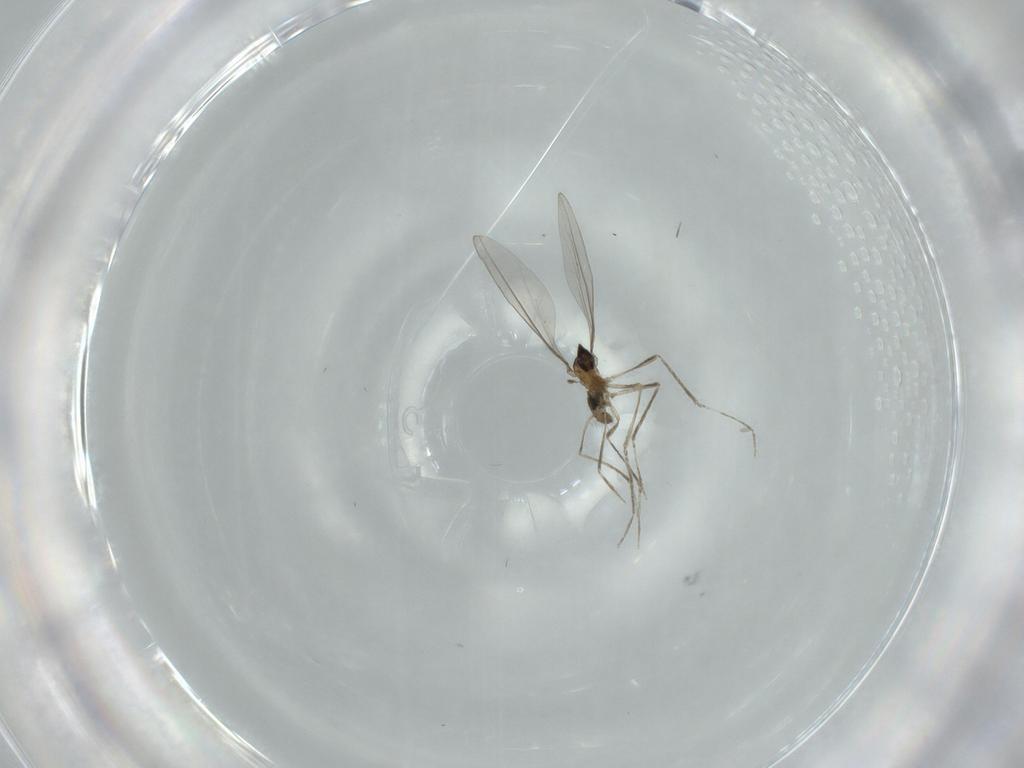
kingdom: Animalia
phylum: Arthropoda
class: Insecta
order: Diptera
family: Cecidomyiidae
